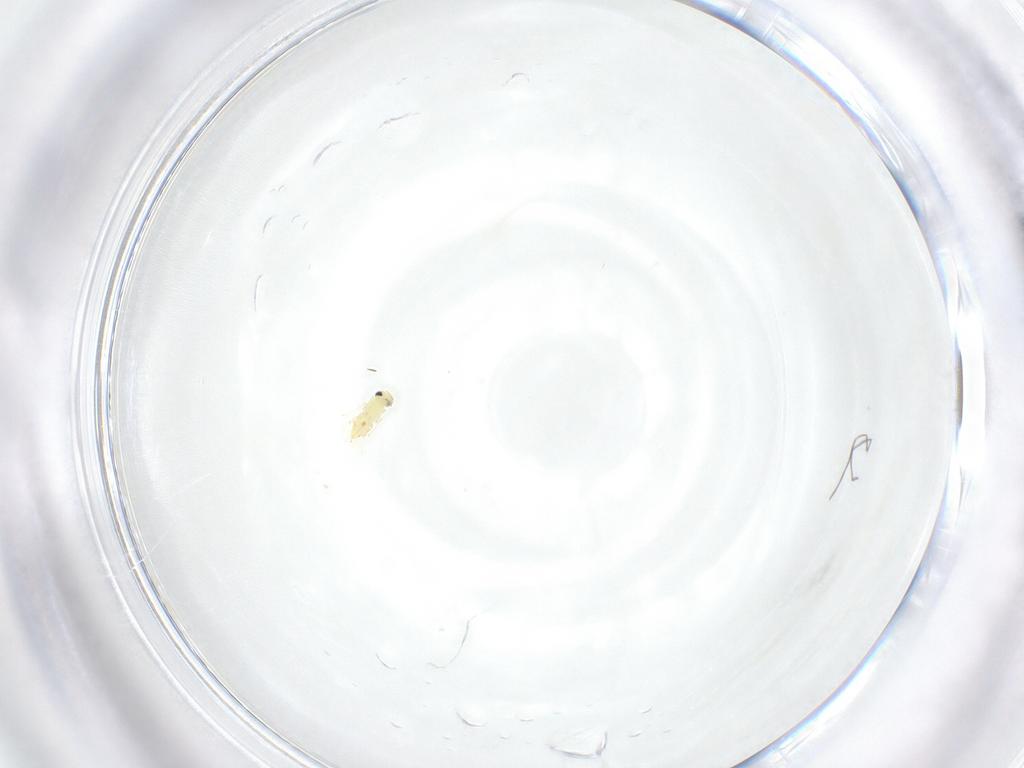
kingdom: Animalia
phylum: Arthropoda
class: Insecta
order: Hymenoptera
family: Trichogrammatidae
